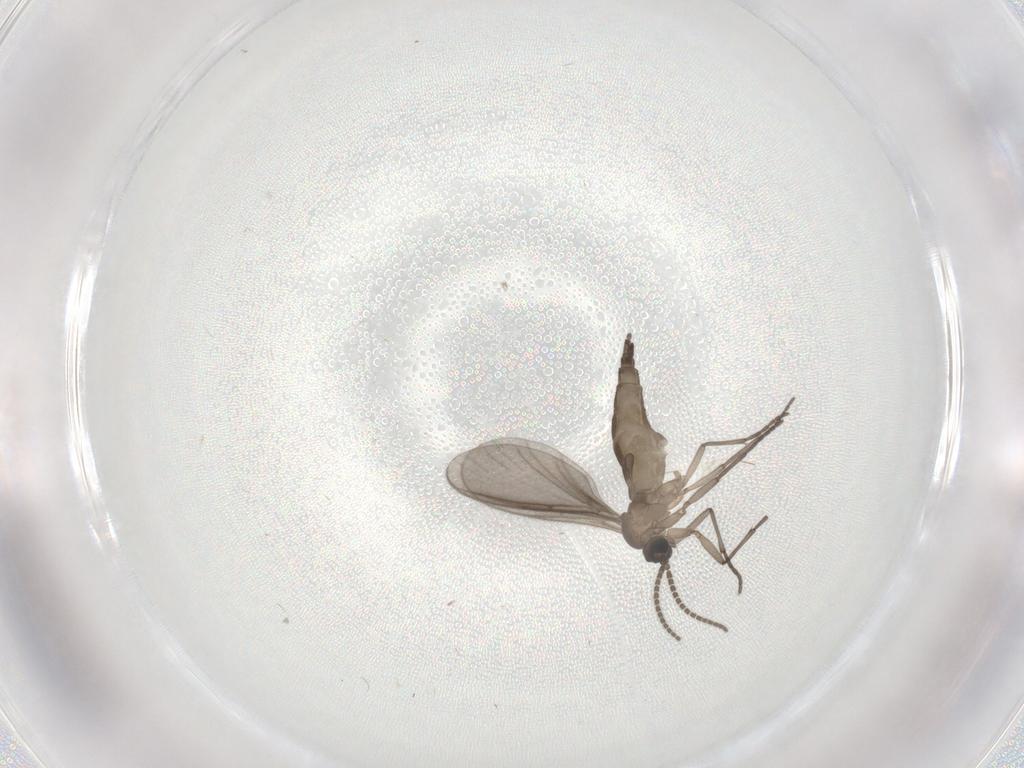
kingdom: Animalia
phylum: Arthropoda
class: Insecta
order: Diptera
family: Sciaridae
